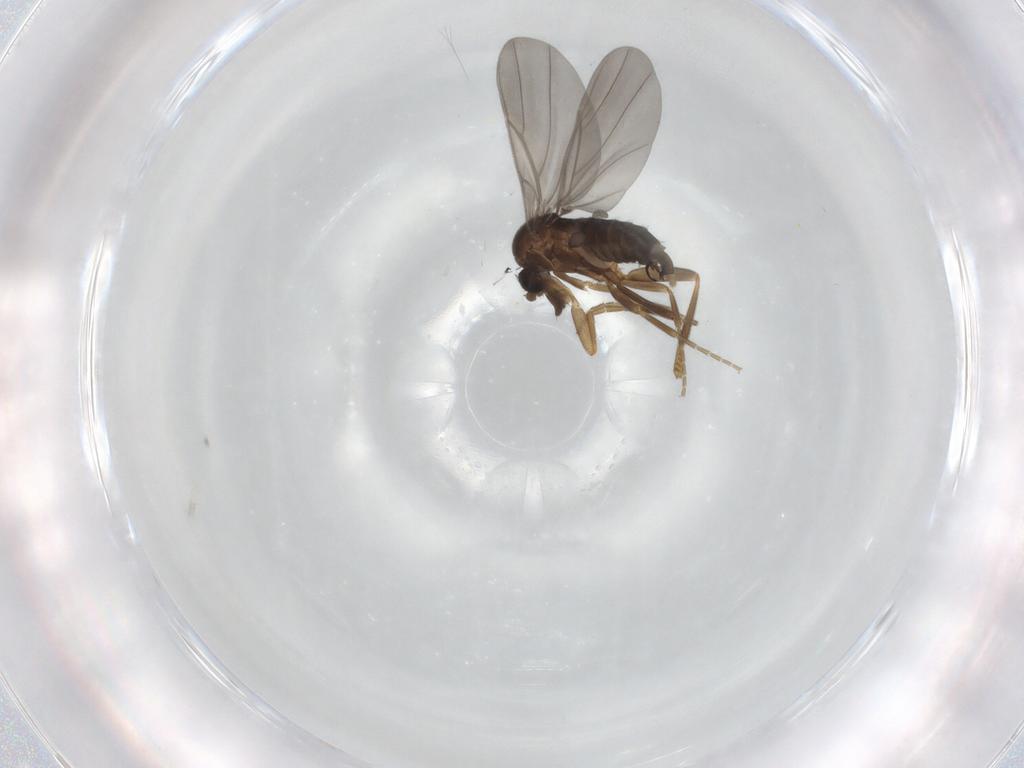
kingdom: Animalia
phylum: Arthropoda
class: Insecta
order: Diptera
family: Phoridae
